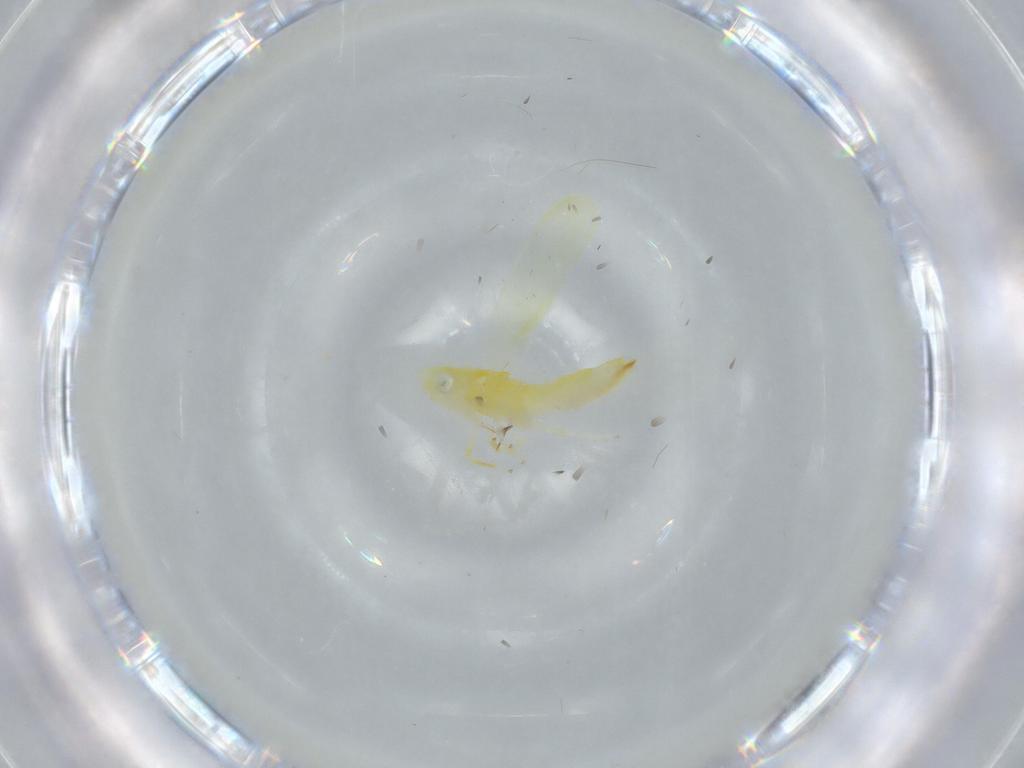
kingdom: Animalia
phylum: Arthropoda
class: Insecta
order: Hemiptera
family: Cicadellidae
